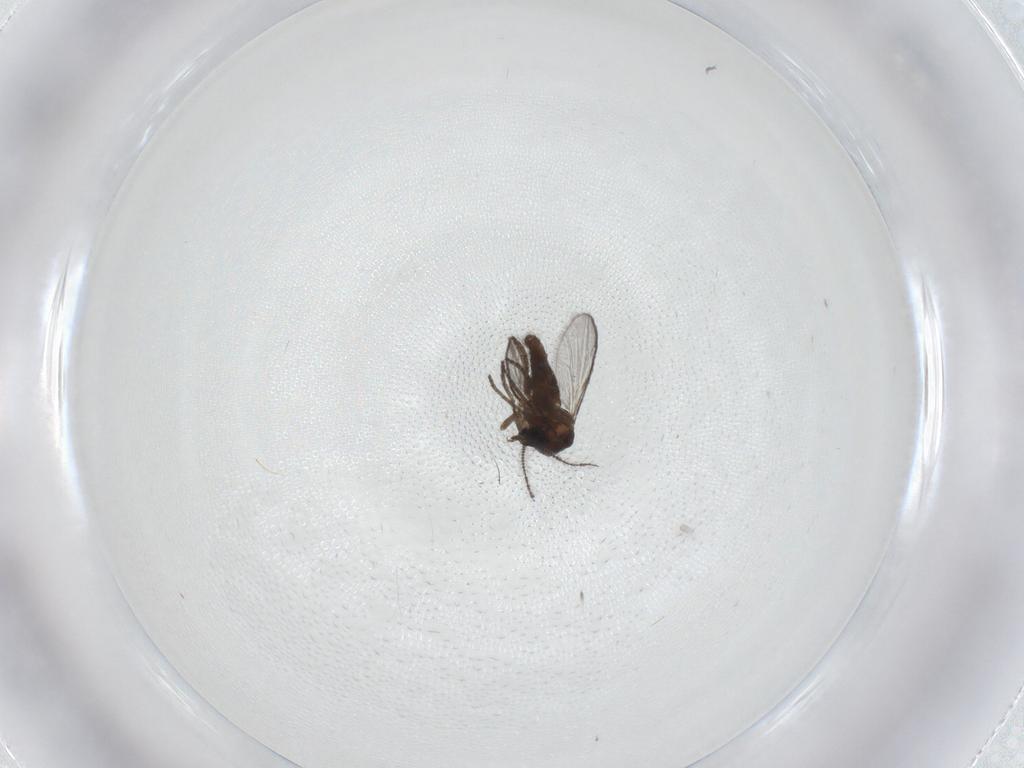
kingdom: Animalia
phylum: Arthropoda
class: Insecta
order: Diptera
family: Ceratopogonidae
